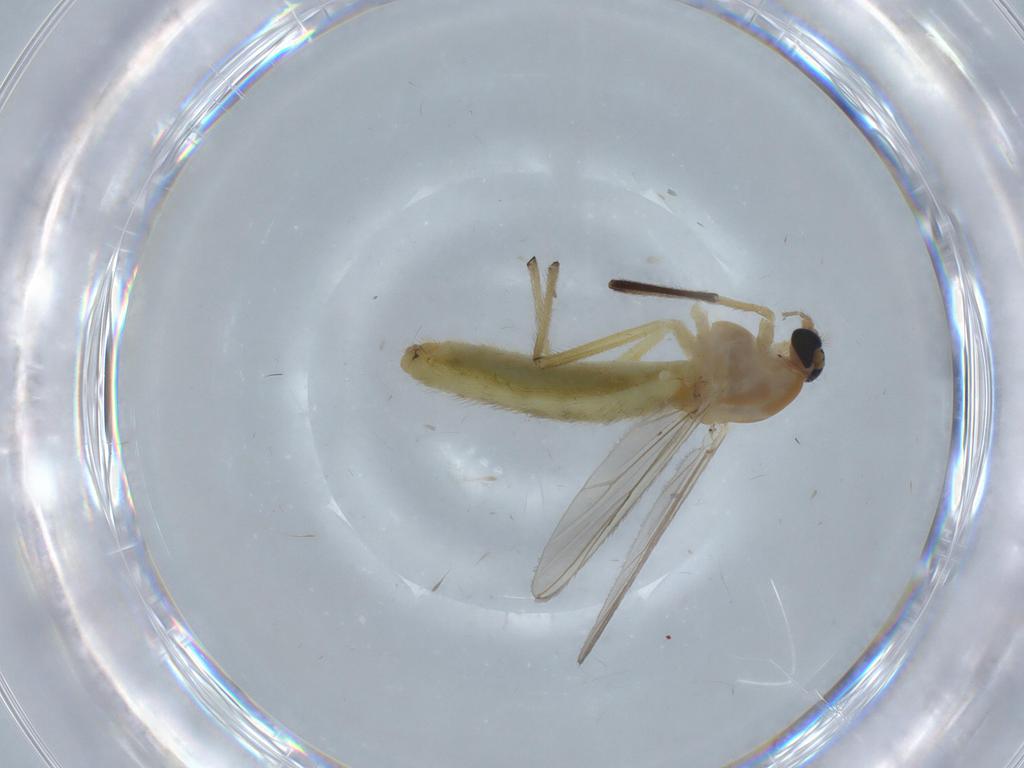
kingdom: Animalia
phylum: Arthropoda
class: Insecta
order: Diptera
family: Chironomidae
